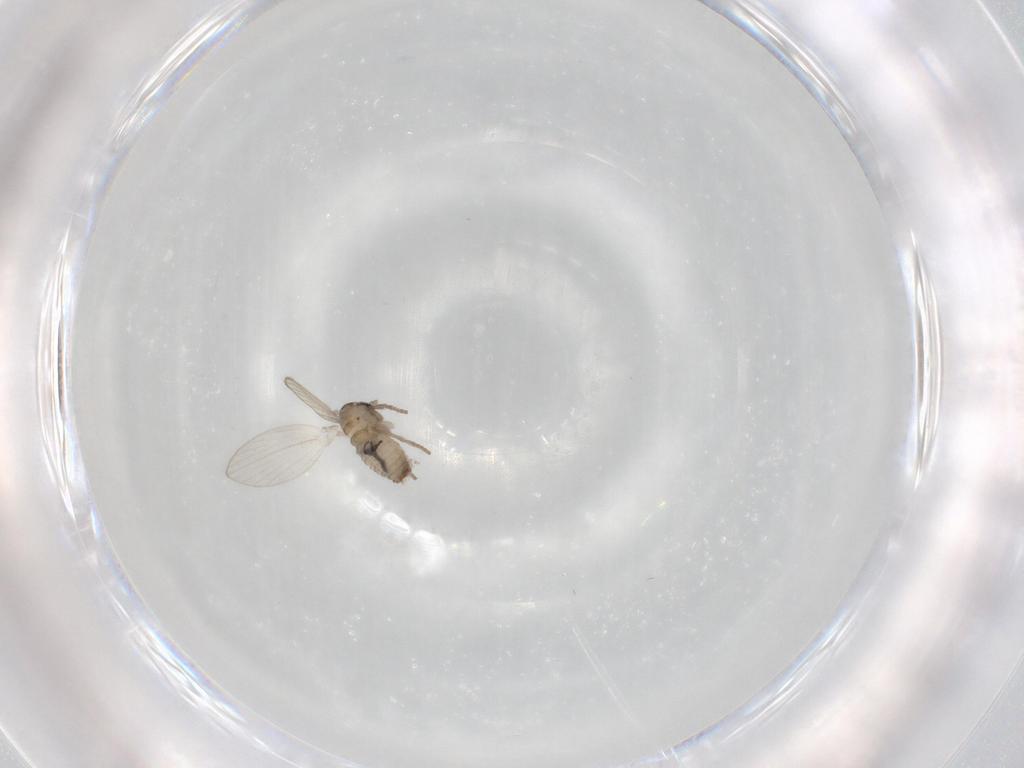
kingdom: Animalia
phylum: Arthropoda
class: Insecta
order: Diptera
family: Psychodidae
